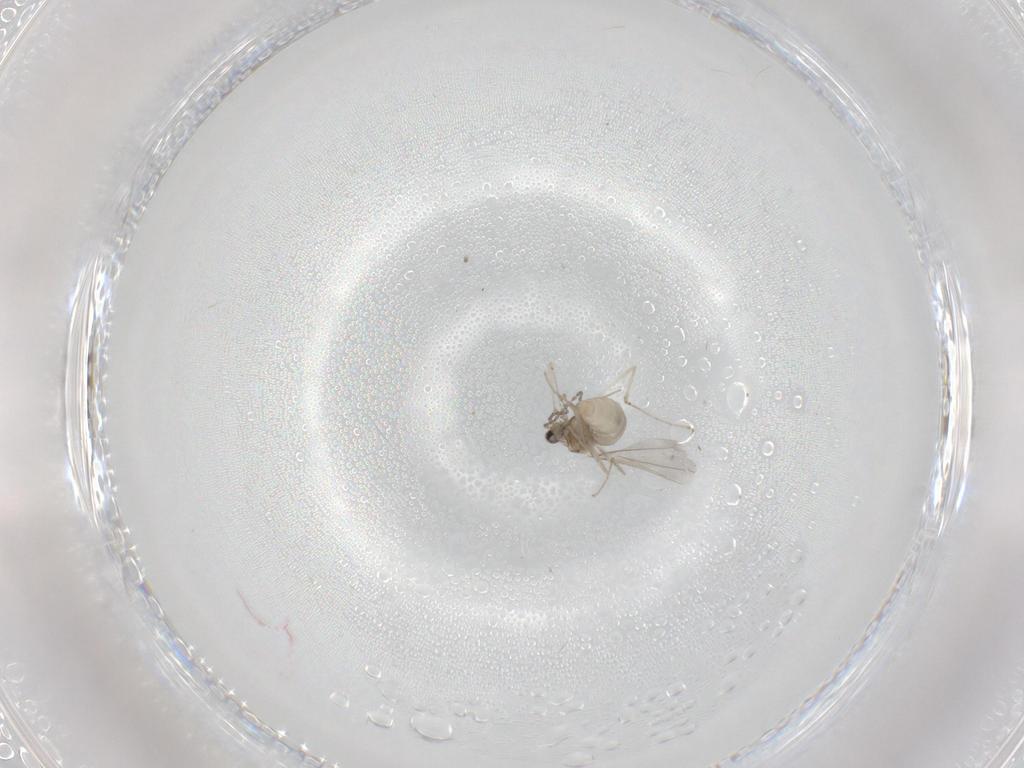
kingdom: Animalia
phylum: Arthropoda
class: Insecta
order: Diptera
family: Cecidomyiidae
